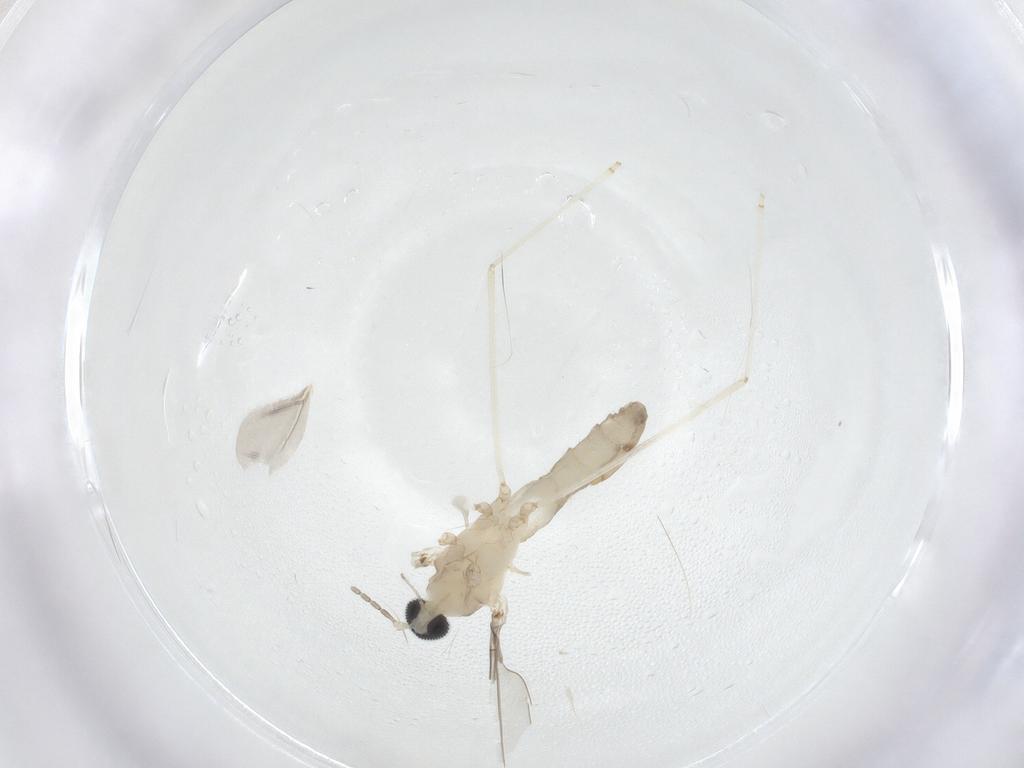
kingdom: Animalia
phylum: Arthropoda
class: Insecta
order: Diptera
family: Cecidomyiidae
